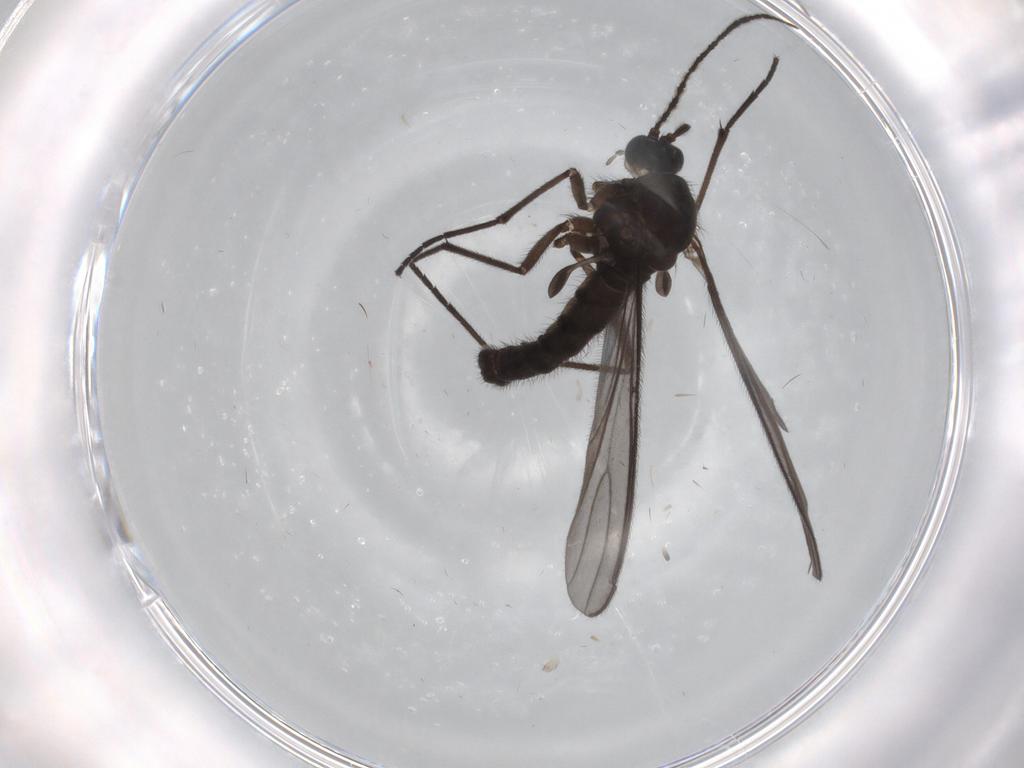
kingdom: Animalia
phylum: Arthropoda
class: Insecta
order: Diptera
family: Sciaridae
